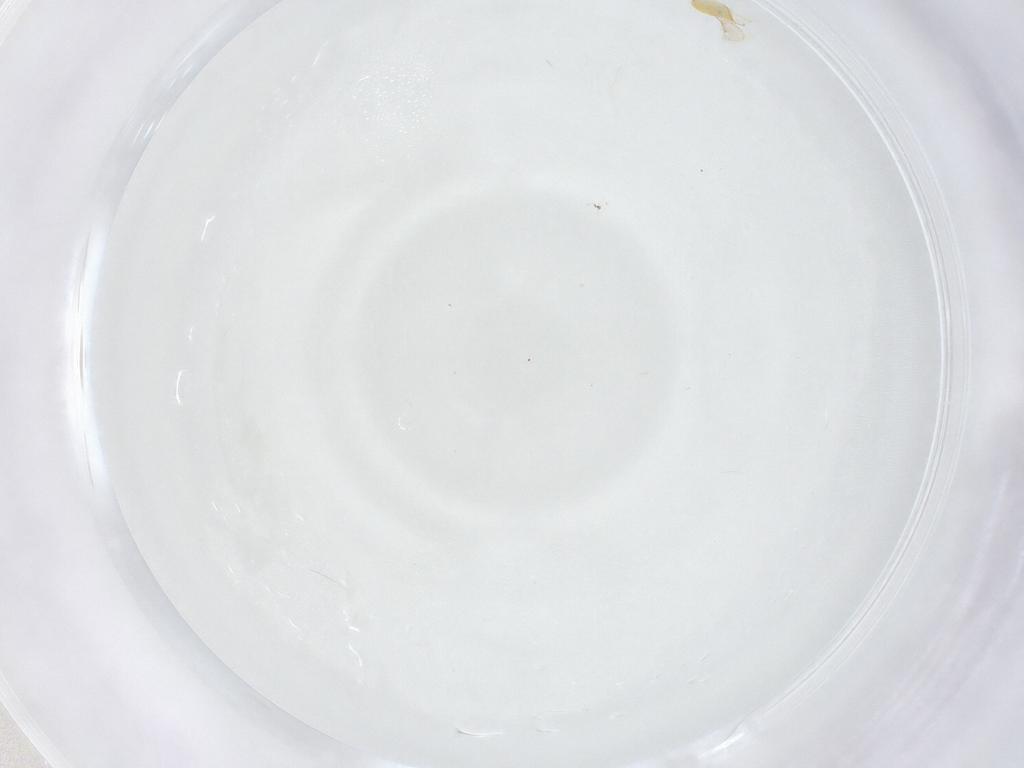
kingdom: Animalia
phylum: Arthropoda
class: Insecta
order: Hymenoptera
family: Aphelinidae
